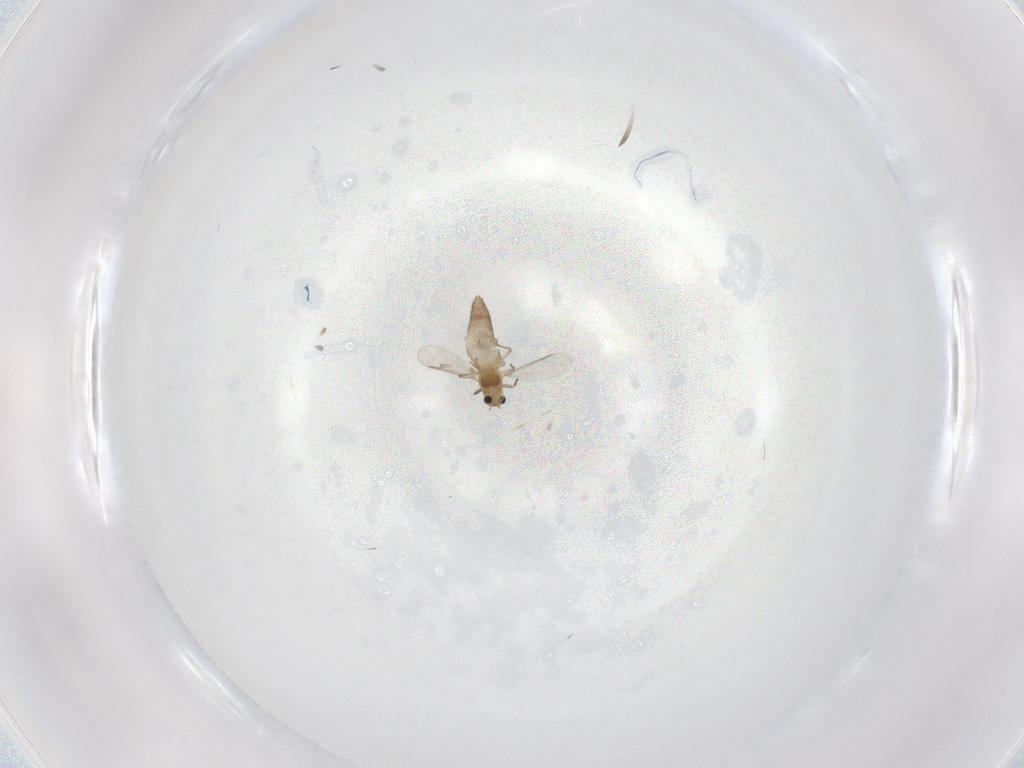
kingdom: Animalia
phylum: Arthropoda
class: Insecta
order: Diptera
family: Chironomidae
